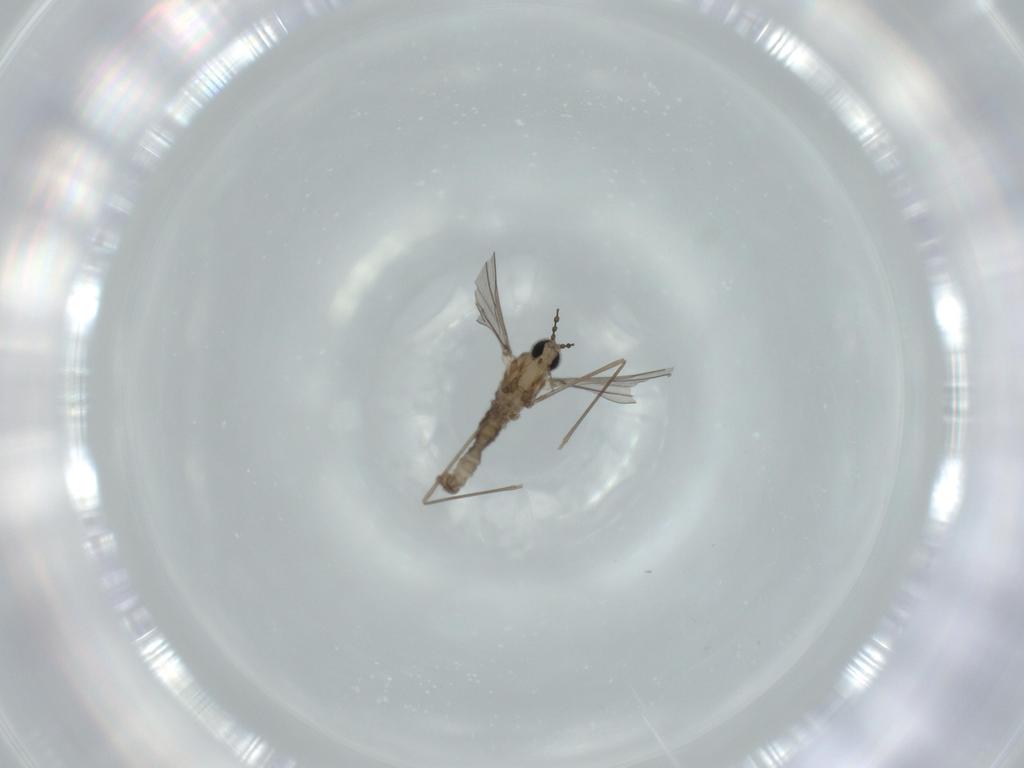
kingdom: Animalia
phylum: Arthropoda
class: Insecta
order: Diptera
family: Cecidomyiidae
